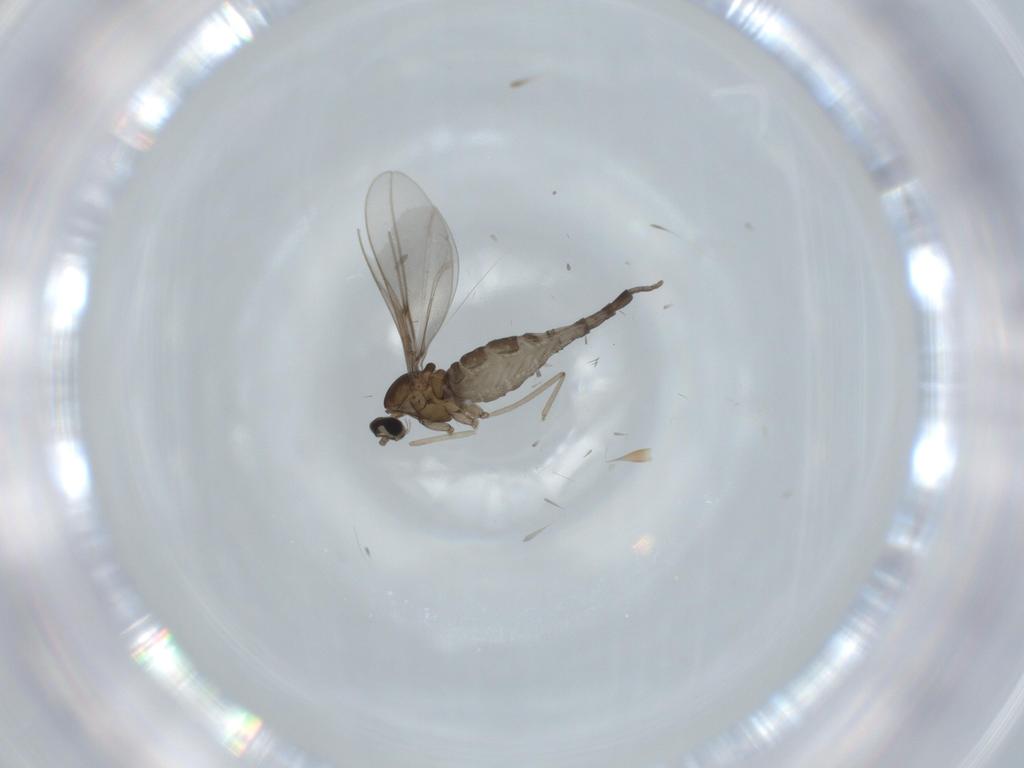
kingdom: Animalia
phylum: Arthropoda
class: Insecta
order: Diptera
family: Cecidomyiidae
